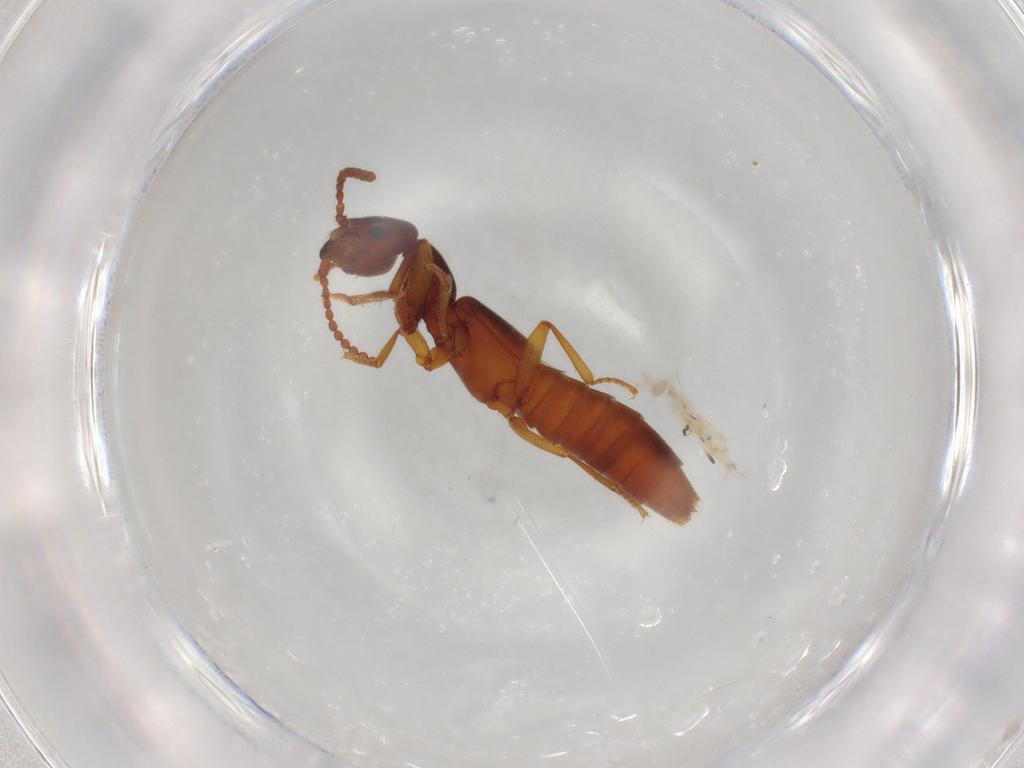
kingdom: Animalia
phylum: Arthropoda
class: Insecta
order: Coleoptera
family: Staphylinidae
